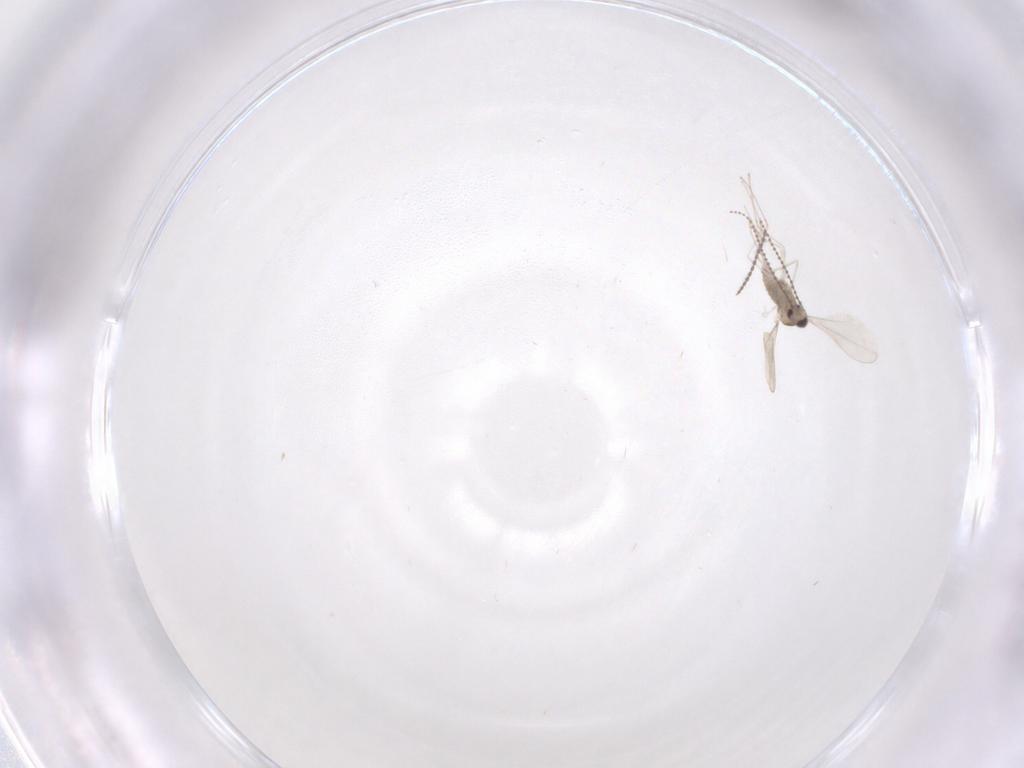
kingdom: Animalia
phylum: Arthropoda
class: Insecta
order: Diptera
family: Cecidomyiidae
